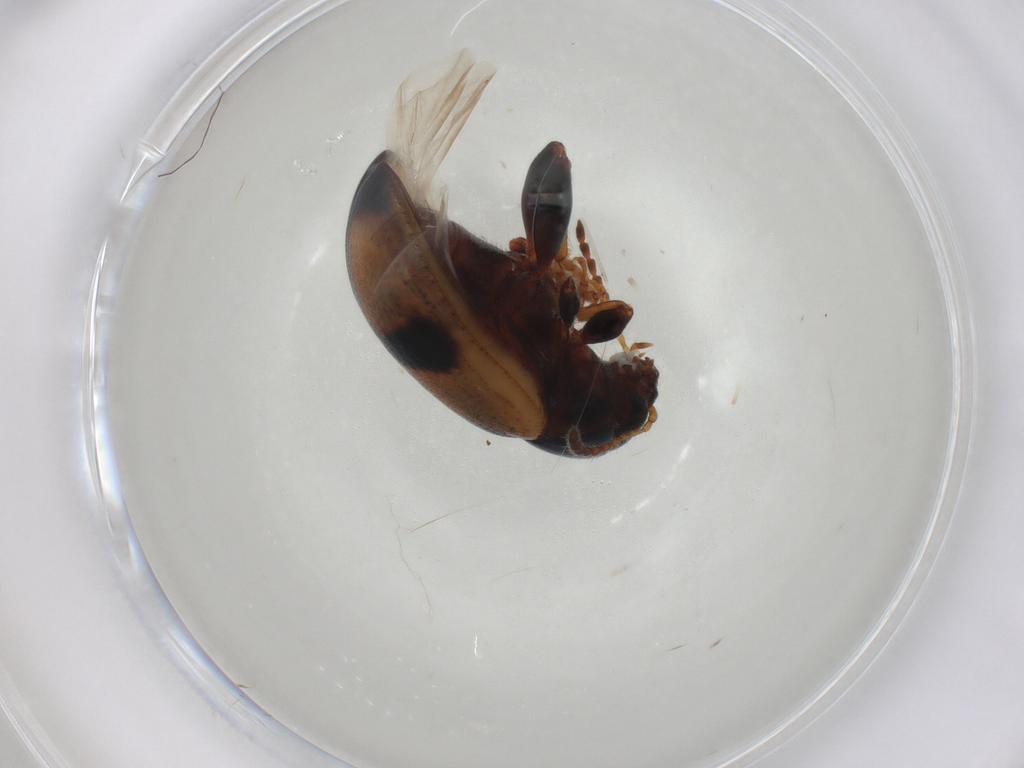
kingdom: Animalia
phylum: Arthropoda
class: Insecta
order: Coleoptera
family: Chrysomelidae
